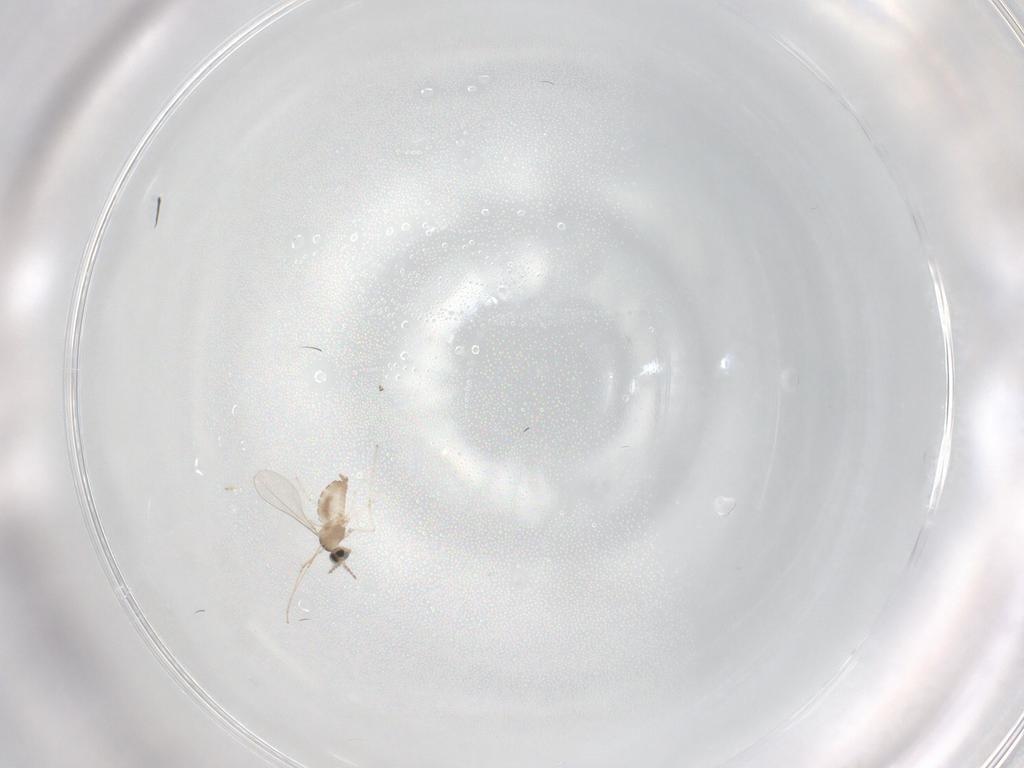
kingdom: Animalia
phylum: Arthropoda
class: Insecta
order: Diptera
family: Cecidomyiidae
